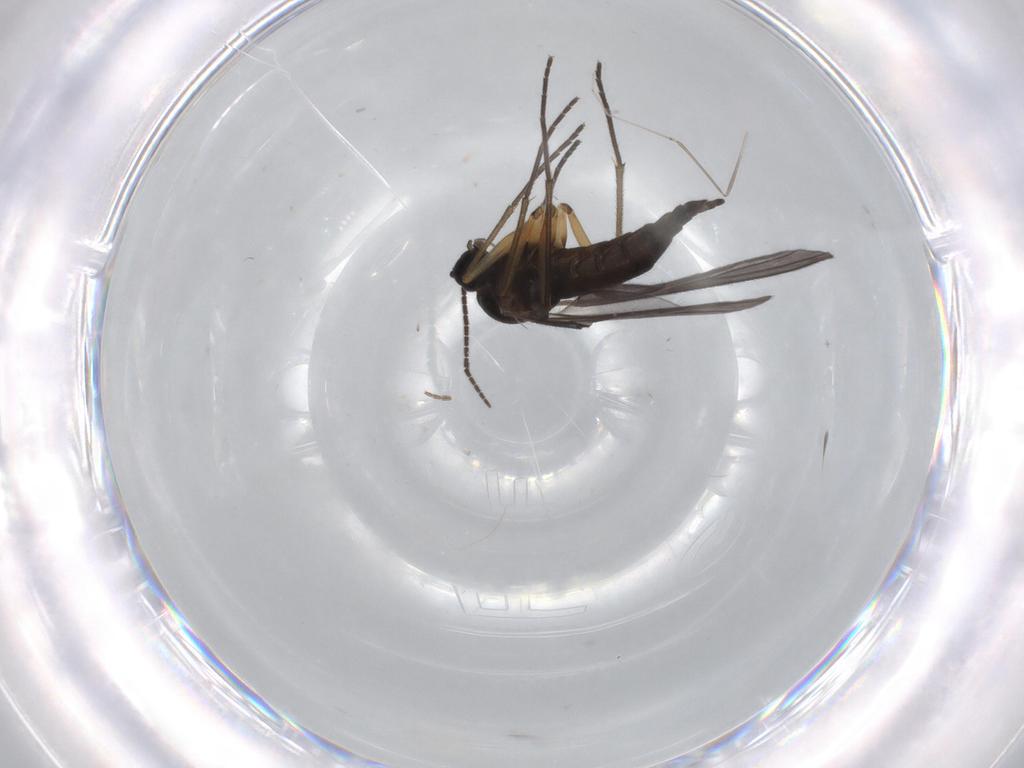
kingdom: Animalia
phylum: Arthropoda
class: Insecta
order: Diptera
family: Sciaridae
